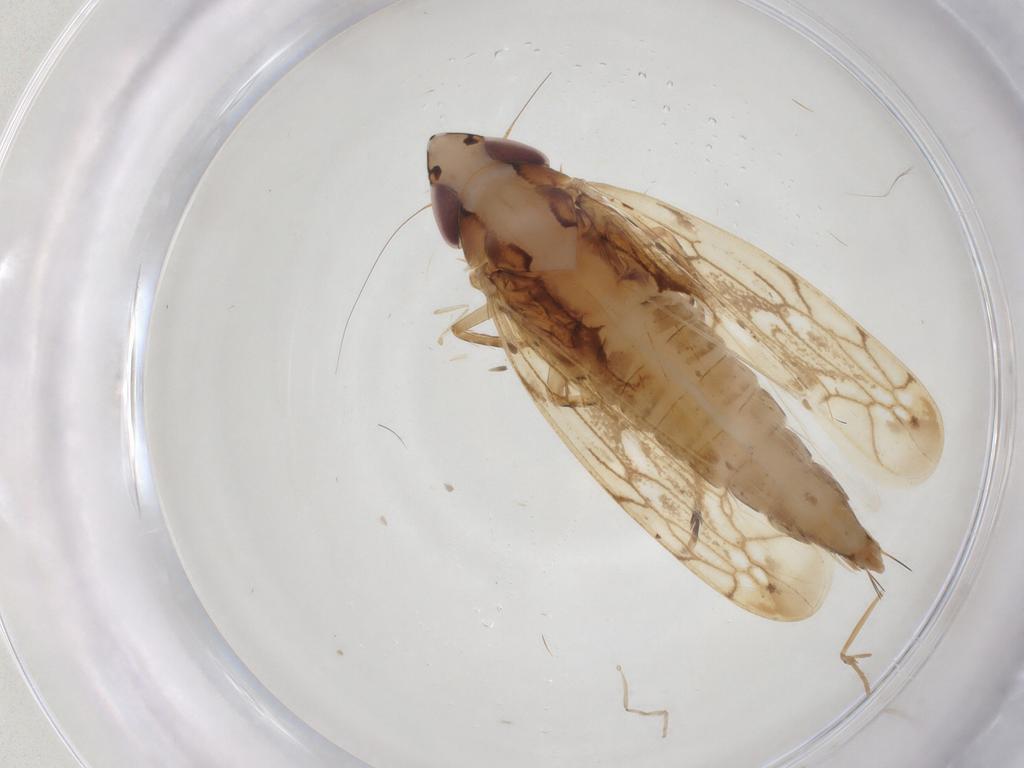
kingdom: Animalia
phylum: Arthropoda
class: Insecta
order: Hemiptera
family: Cicadellidae
